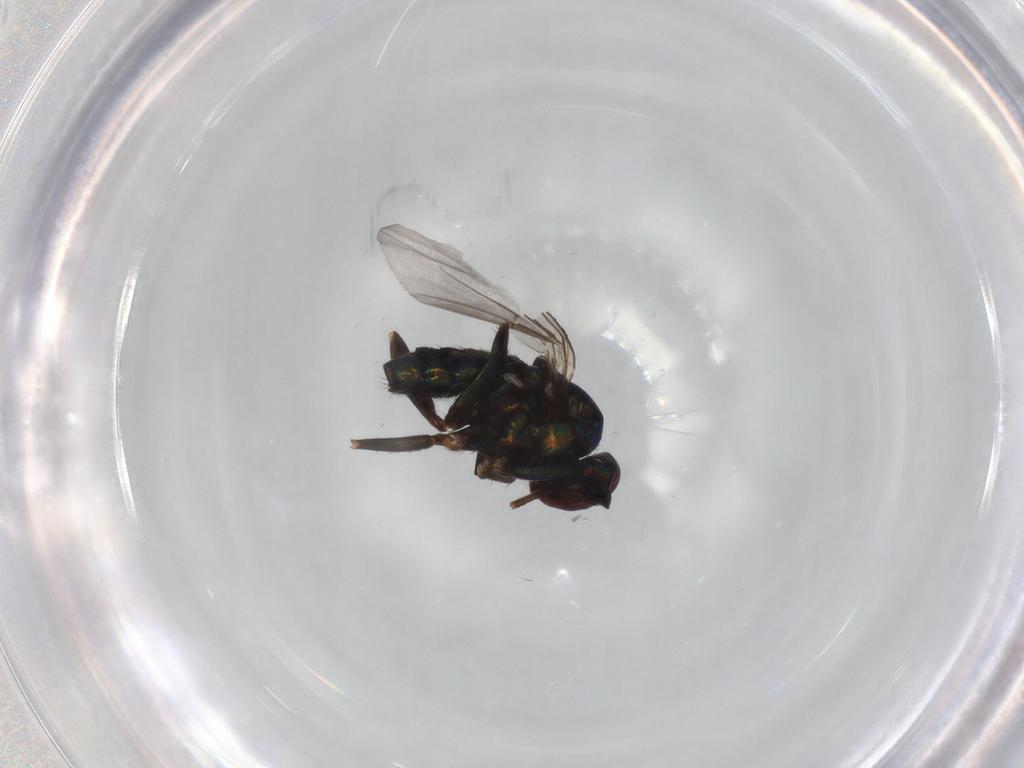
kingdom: Animalia
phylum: Arthropoda
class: Insecta
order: Diptera
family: Dolichopodidae
